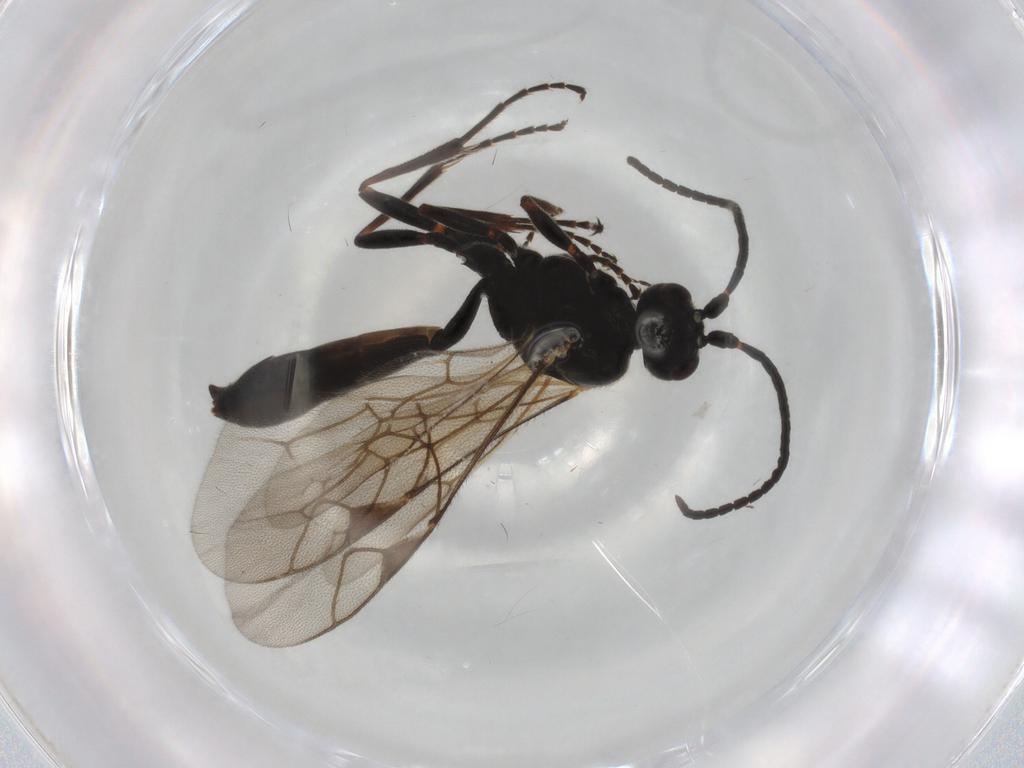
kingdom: Animalia
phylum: Arthropoda
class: Insecta
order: Hymenoptera
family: Ichneumonidae
